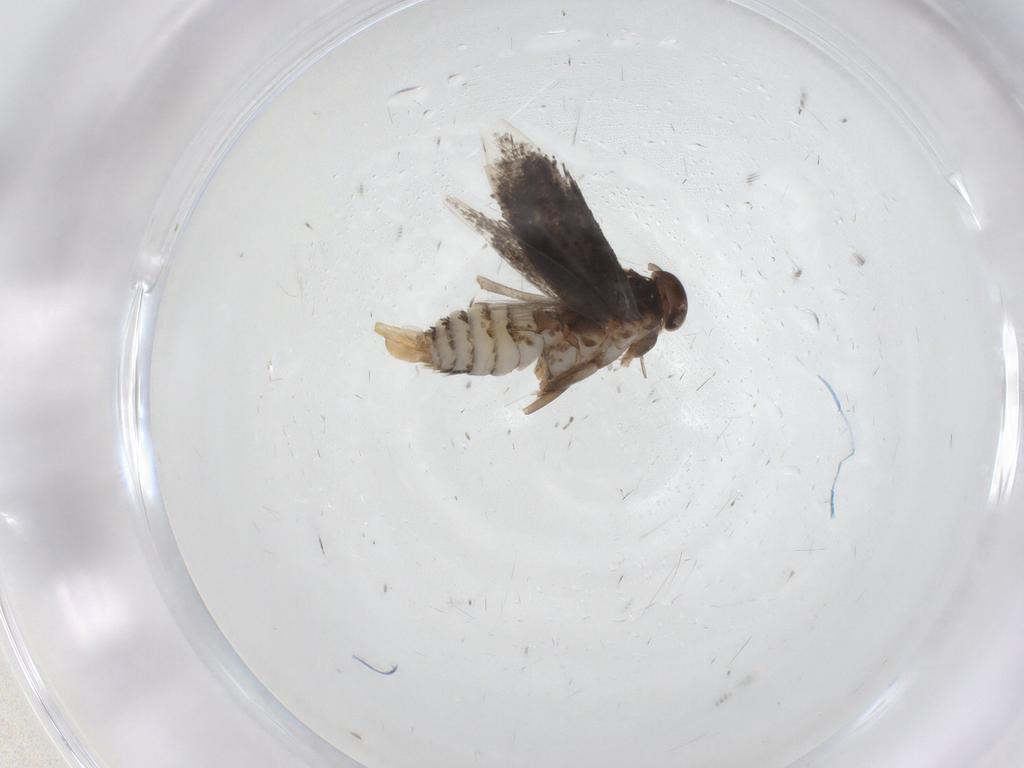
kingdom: Animalia
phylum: Arthropoda
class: Insecta
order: Lepidoptera
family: Elachistidae
